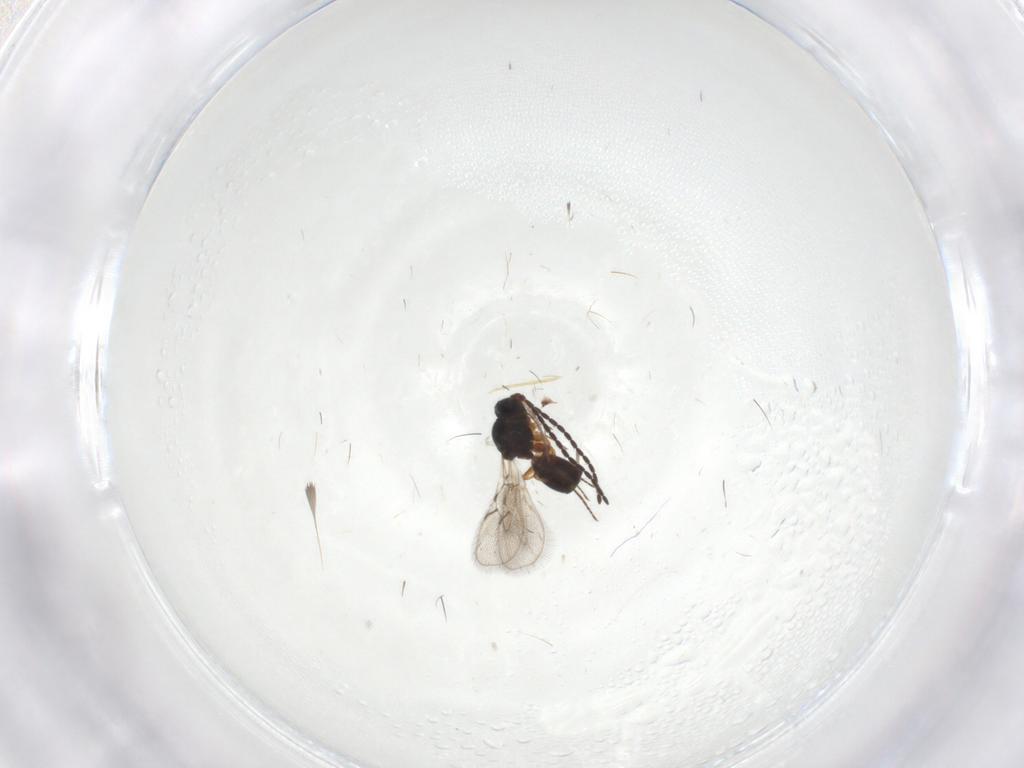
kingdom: Animalia
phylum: Arthropoda
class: Insecta
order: Hymenoptera
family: Figitidae
